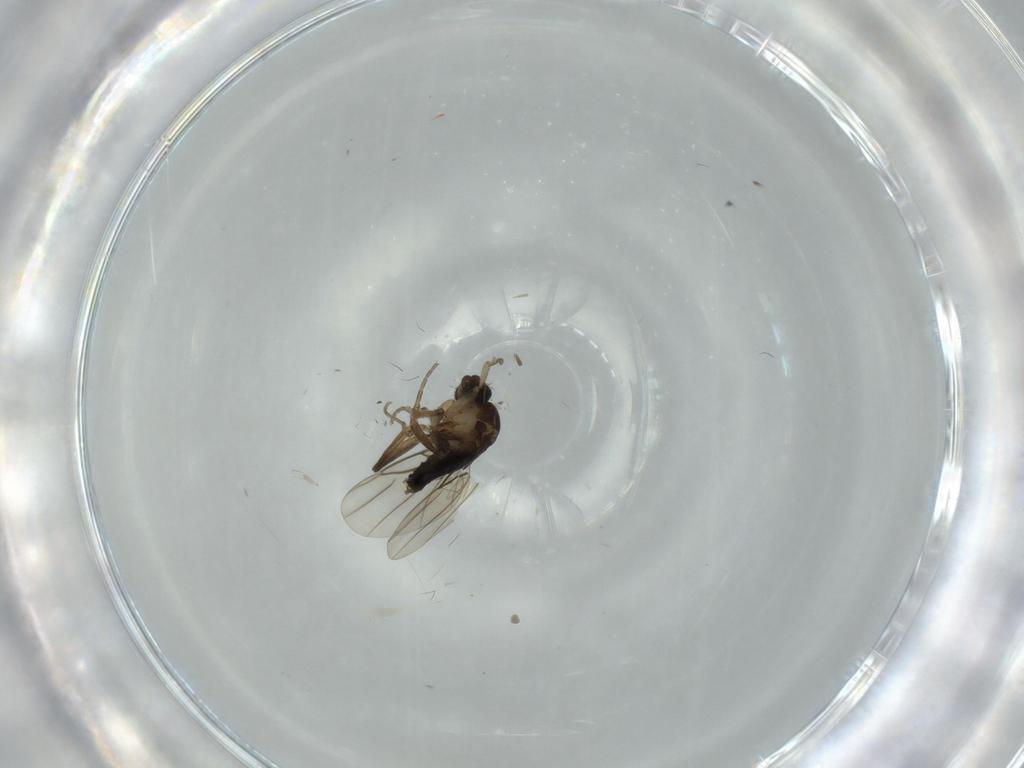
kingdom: Animalia
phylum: Arthropoda
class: Insecta
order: Diptera
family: Phoridae
